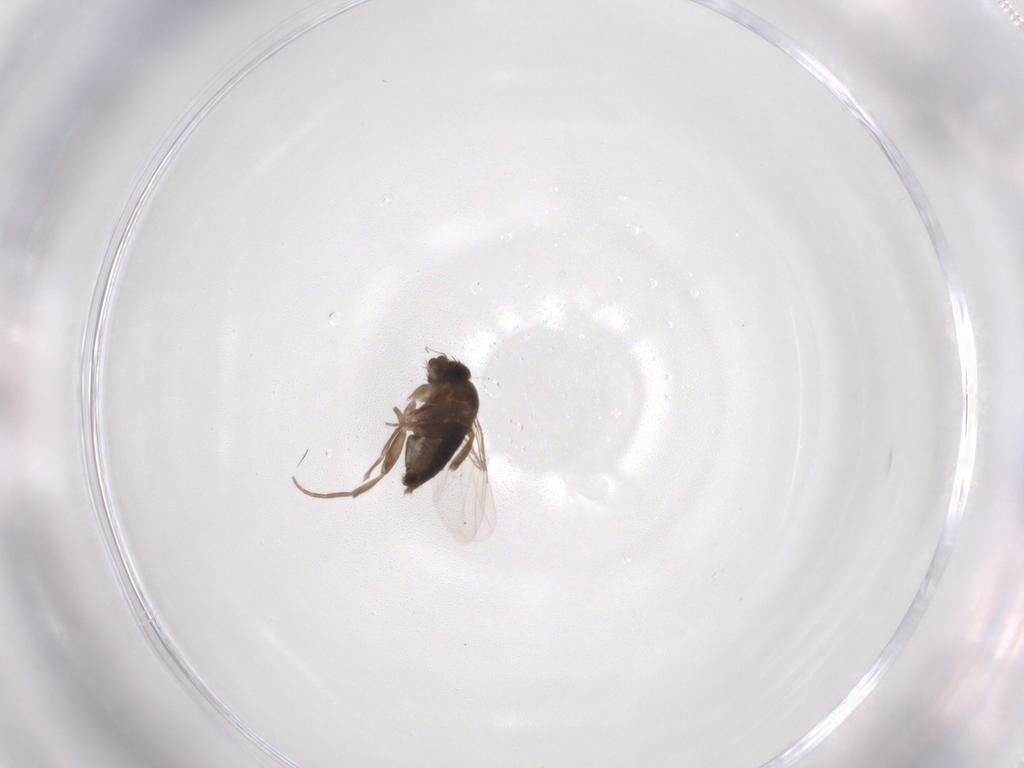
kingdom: Animalia
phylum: Arthropoda
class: Insecta
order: Diptera
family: Phoridae
